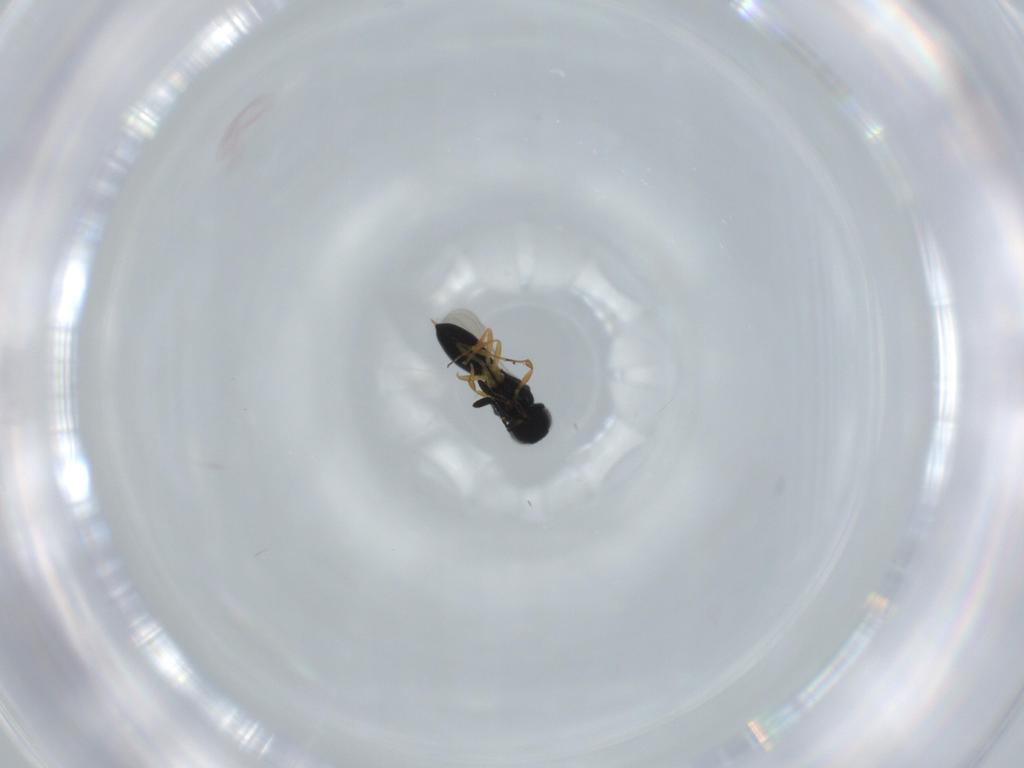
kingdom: Animalia
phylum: Arthropoda
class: Insecta
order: Hymenoptera
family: Scelionidae
